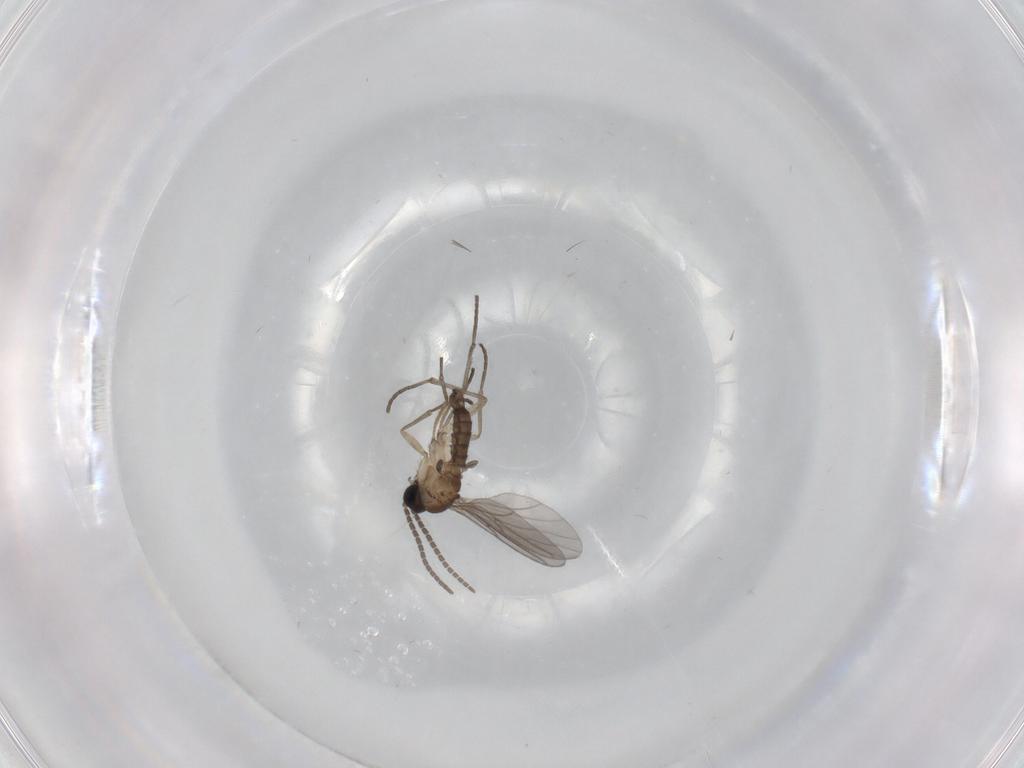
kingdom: Animalia
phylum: Arthropoda
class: Insecta
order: Diptera
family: Sciaridae
